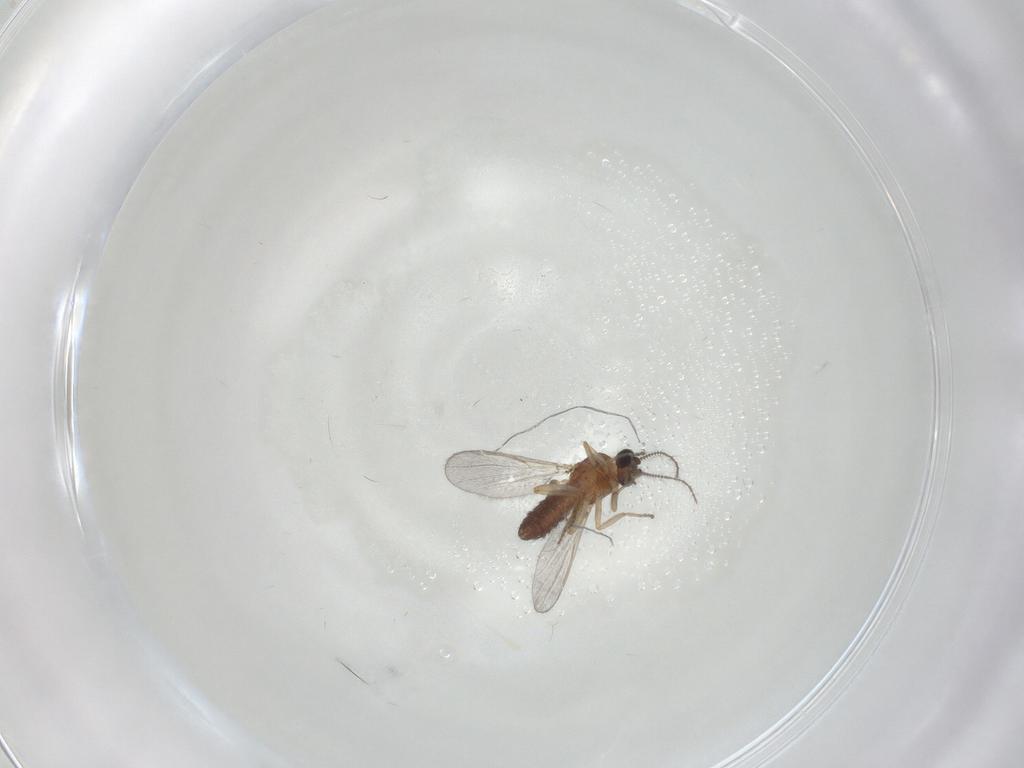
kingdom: Animalia
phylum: Arthropoda
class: Insecta
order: Diptera
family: Ceratopogonidae
